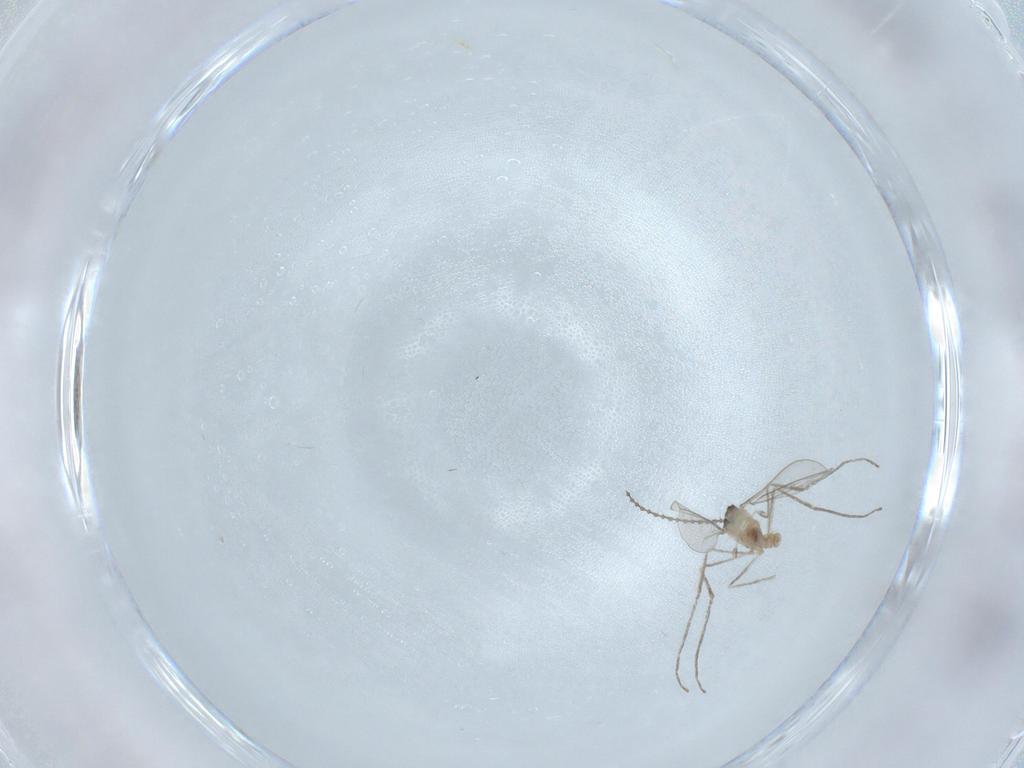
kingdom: Animalia
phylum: Arthropoda
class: Insecta
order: Diptera
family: Cecidomyiidae
